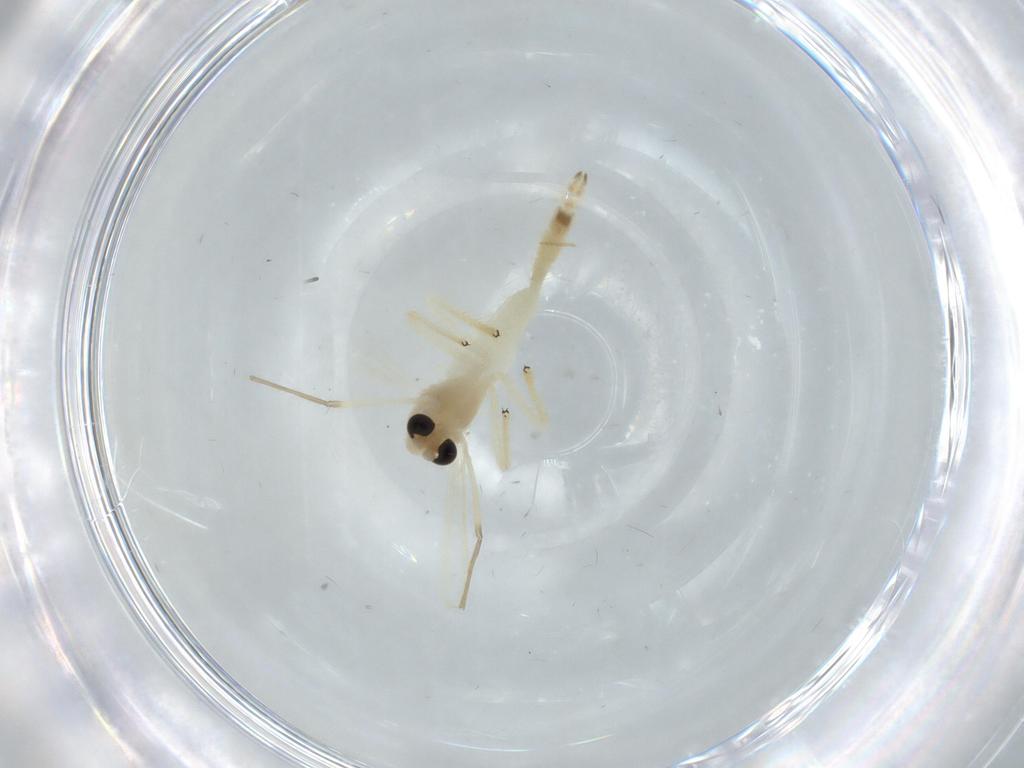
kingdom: Animalia
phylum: Arthropoda
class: Insecta
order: Diptera
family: Chironomidae
